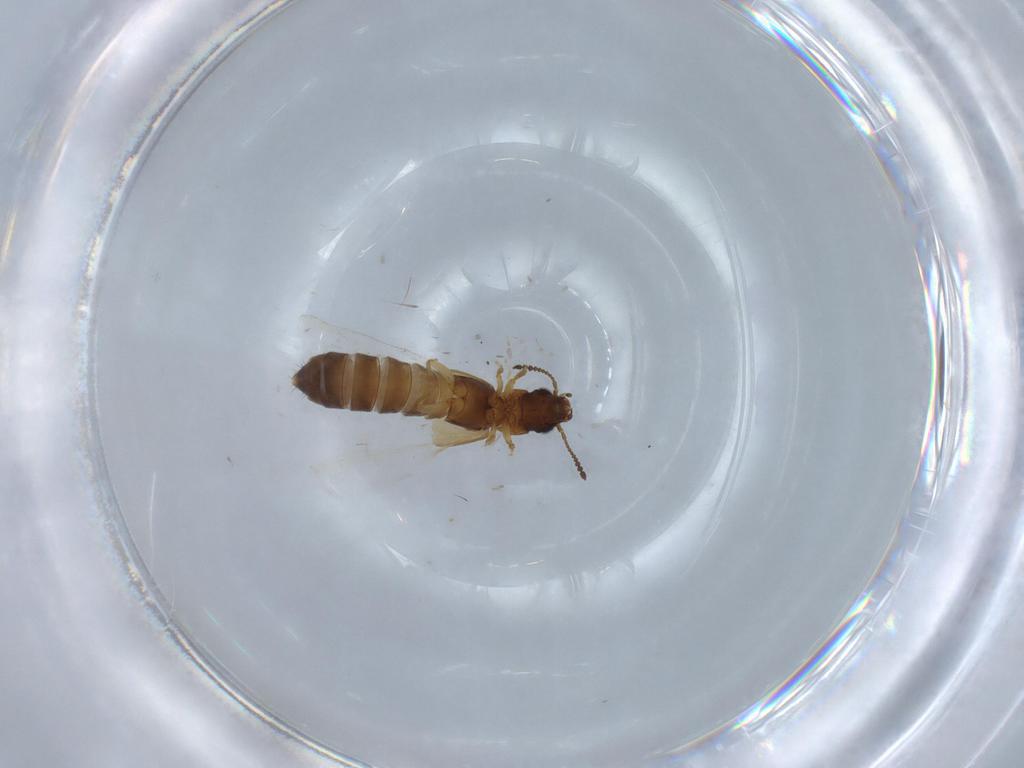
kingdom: Animalia
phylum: Arthropoda
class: Insecta
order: Coleoptera
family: Staphylinidae
